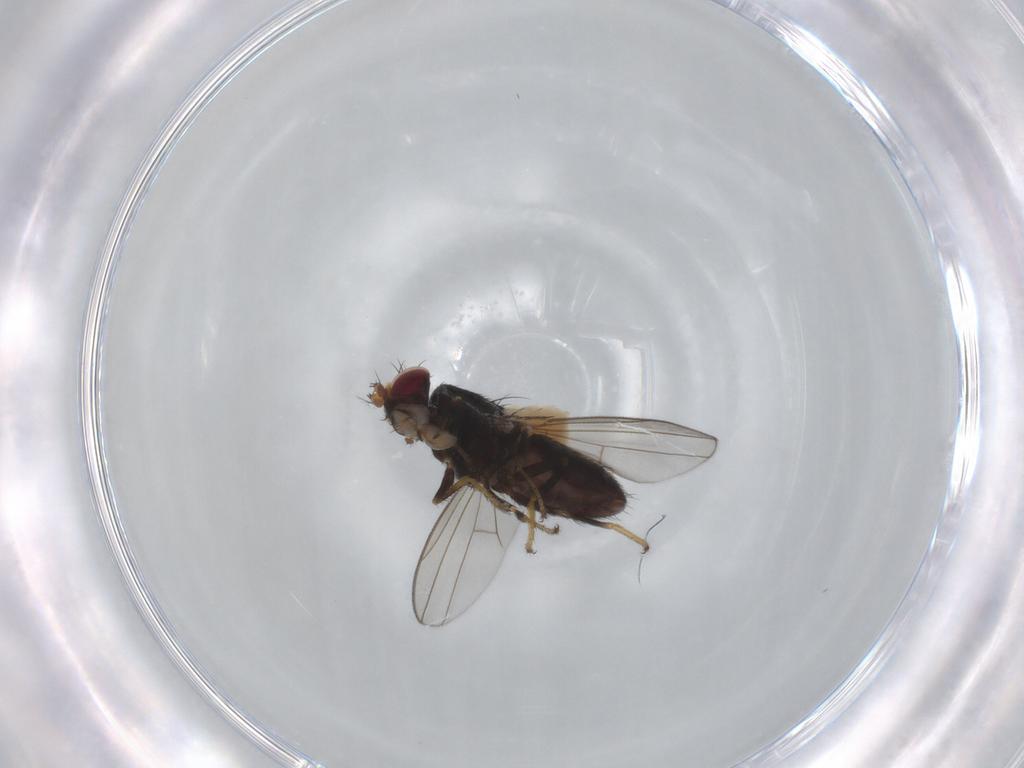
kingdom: Animalia
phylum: Arthropoda
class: Insecta
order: Diptera
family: Ephydridae
